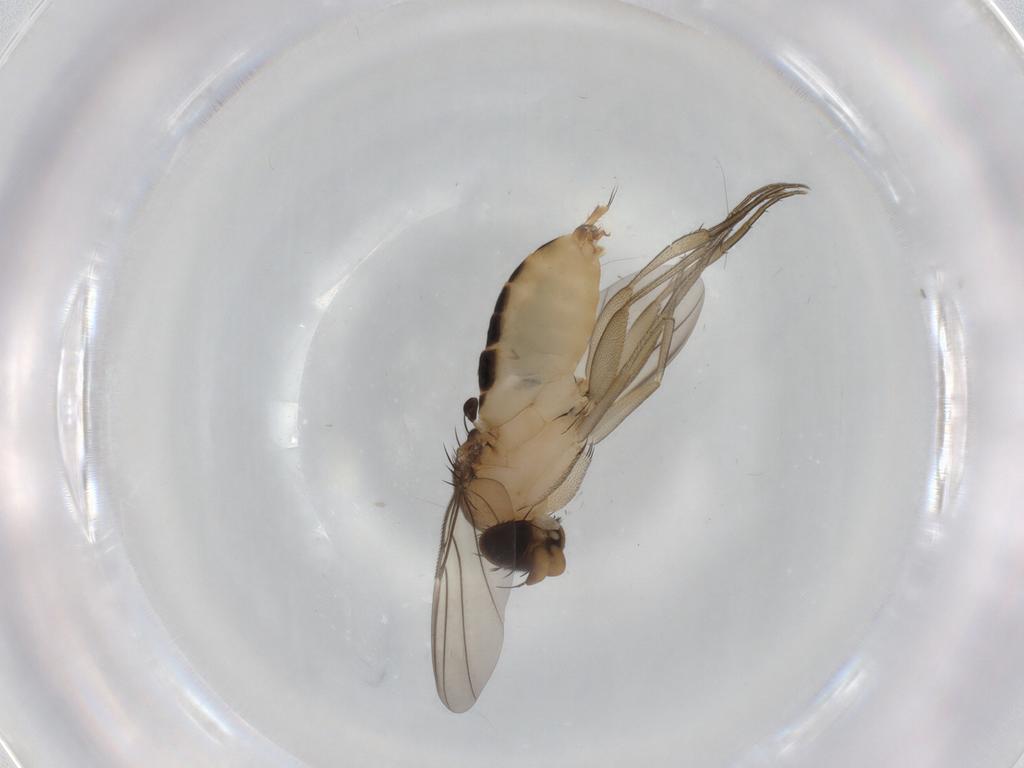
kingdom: Animalia
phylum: Arthropoda
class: Insecta
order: Diptera
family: Phoridae
